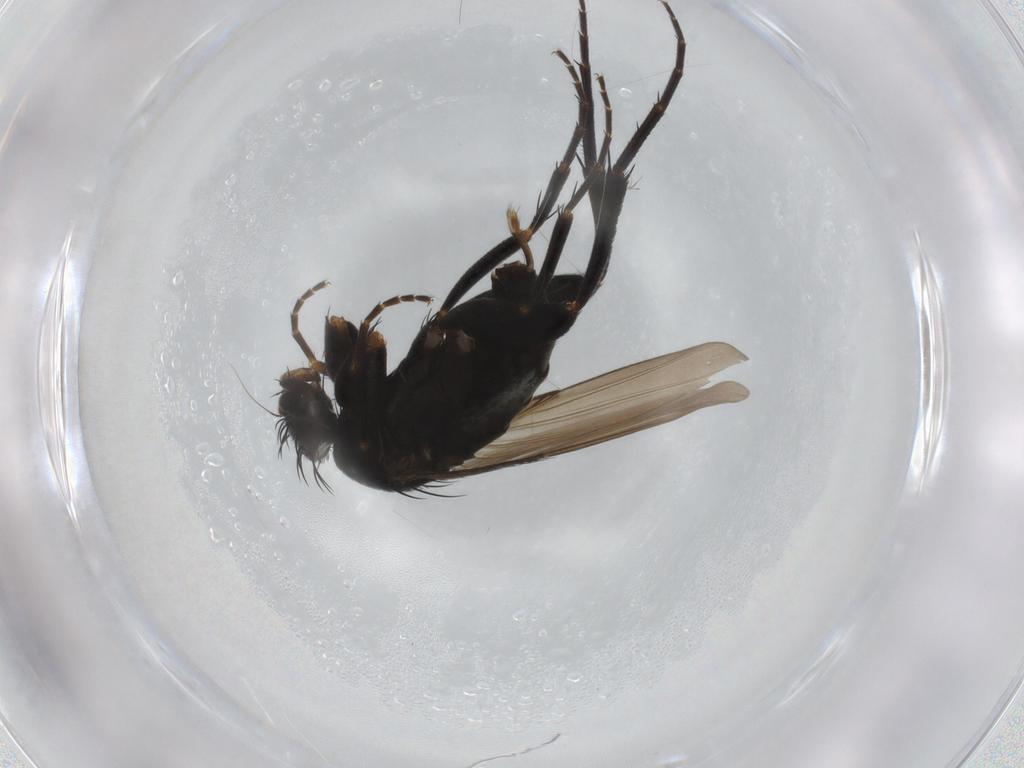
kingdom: Animalia
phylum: Arthropoda
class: Insecta
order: Diptera
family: Phoridae
